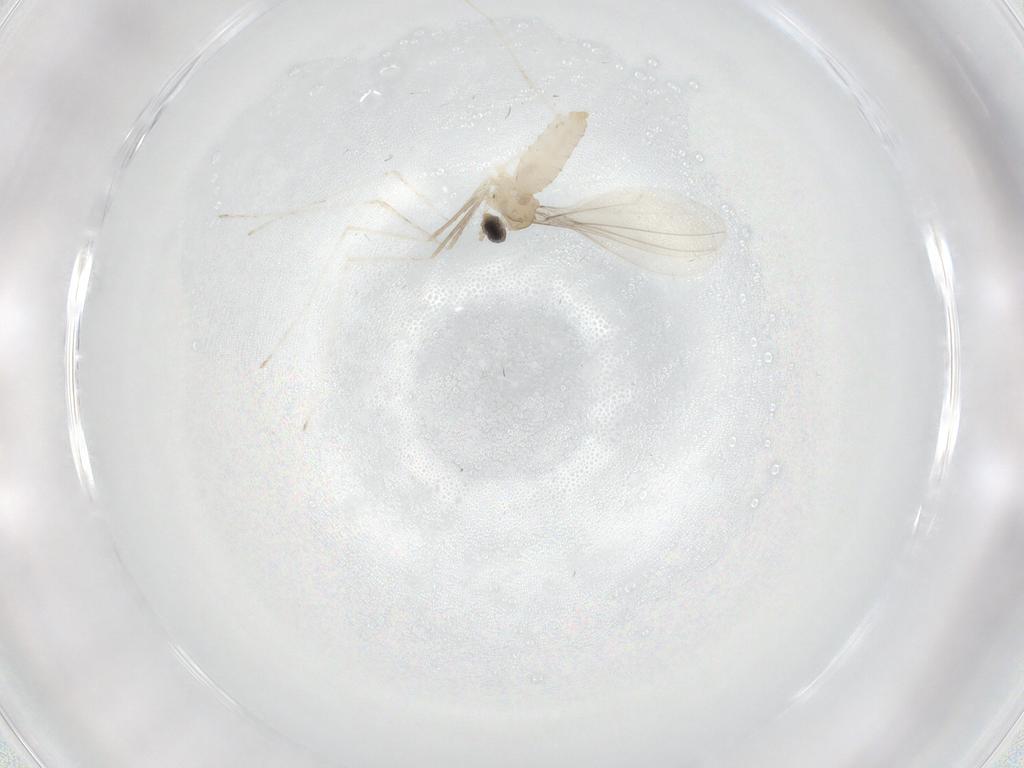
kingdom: Animalia
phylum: Arthropoda
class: Insecta
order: Diptera
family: Cecidomyiidae
